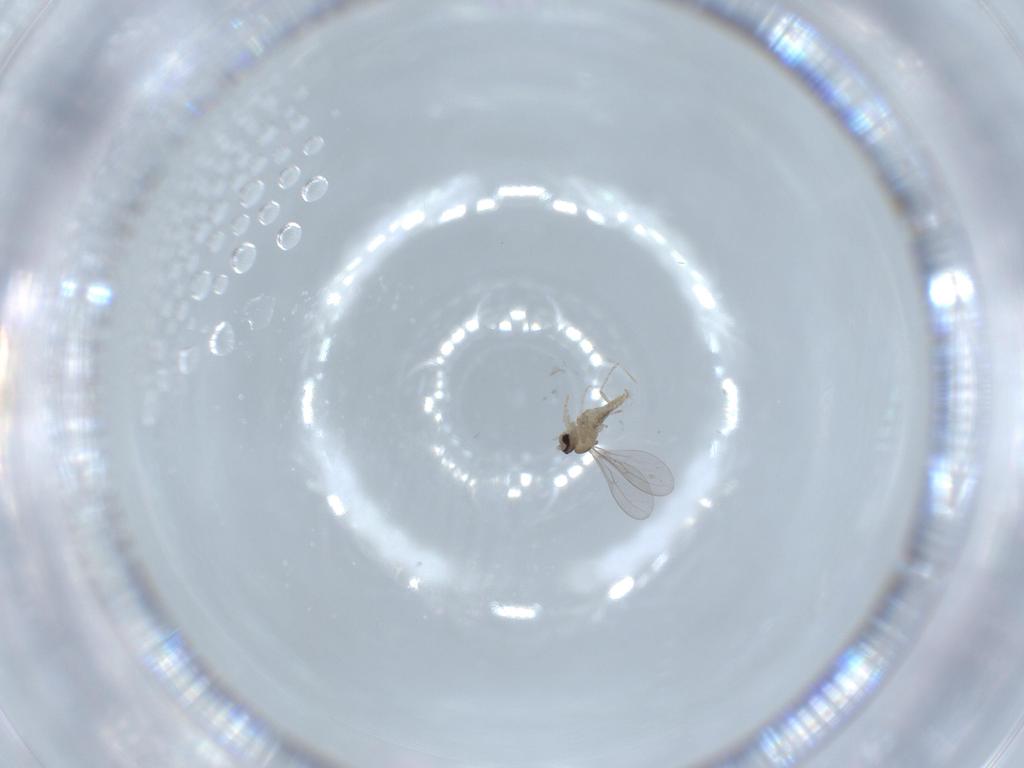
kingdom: Animalia
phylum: Arthropoda
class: Insecta
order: Diptera
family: Cecidomyiidae
